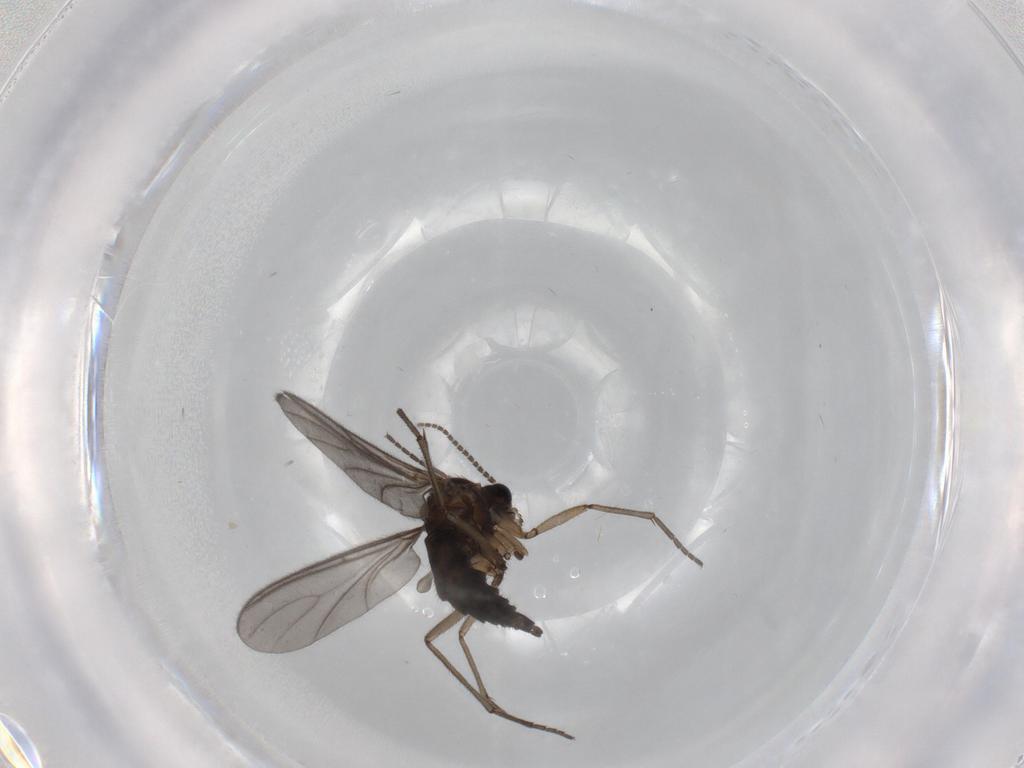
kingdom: Animalia
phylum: Arthropoda
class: Insecta
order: Diptera
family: Sciaridae
